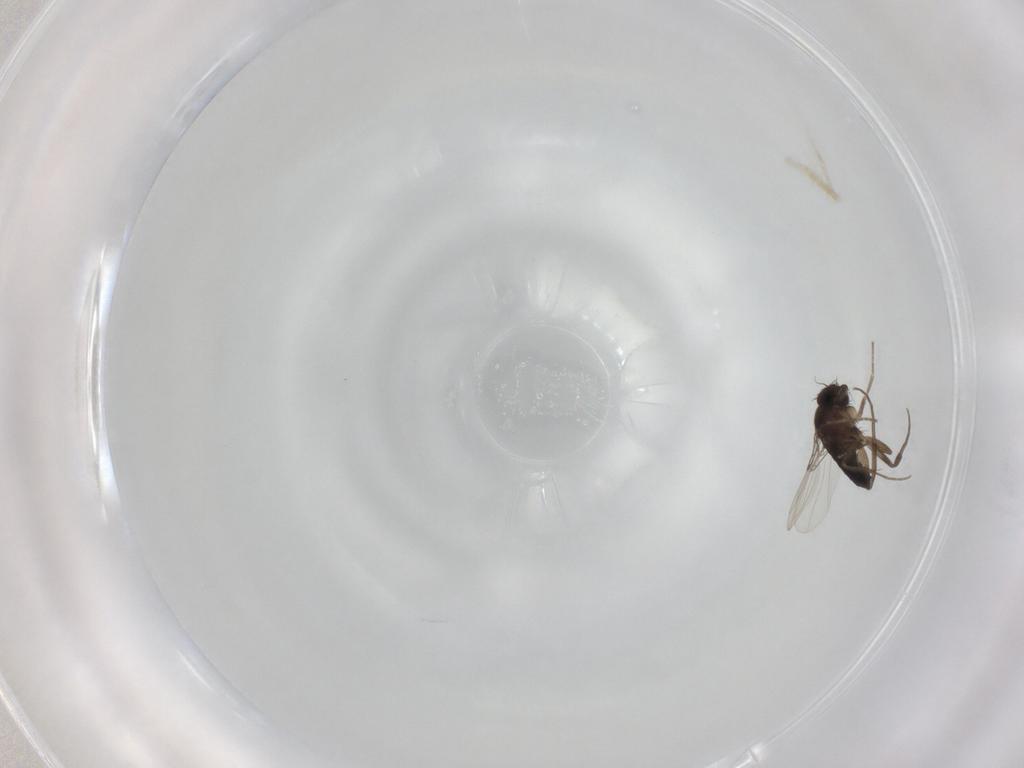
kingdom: Animalia
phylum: Arthropoda
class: Insecta
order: Diptera
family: Phoridae
